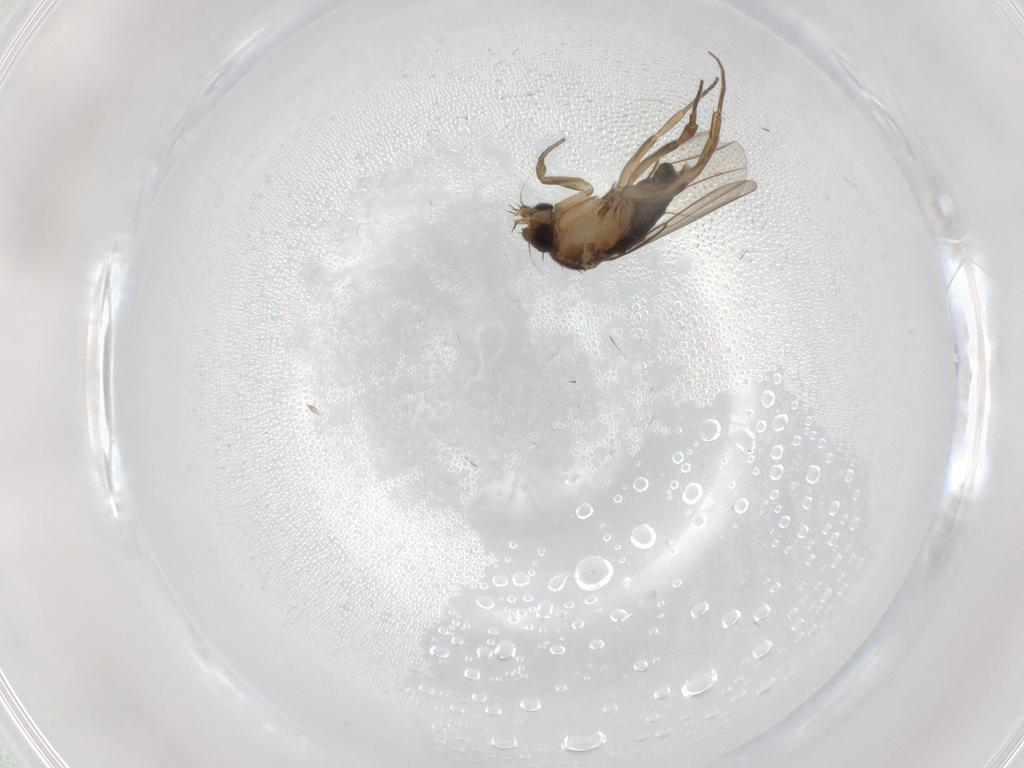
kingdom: Animalia
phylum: Arthropoda
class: Insecta
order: Diptera
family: Phoridae
